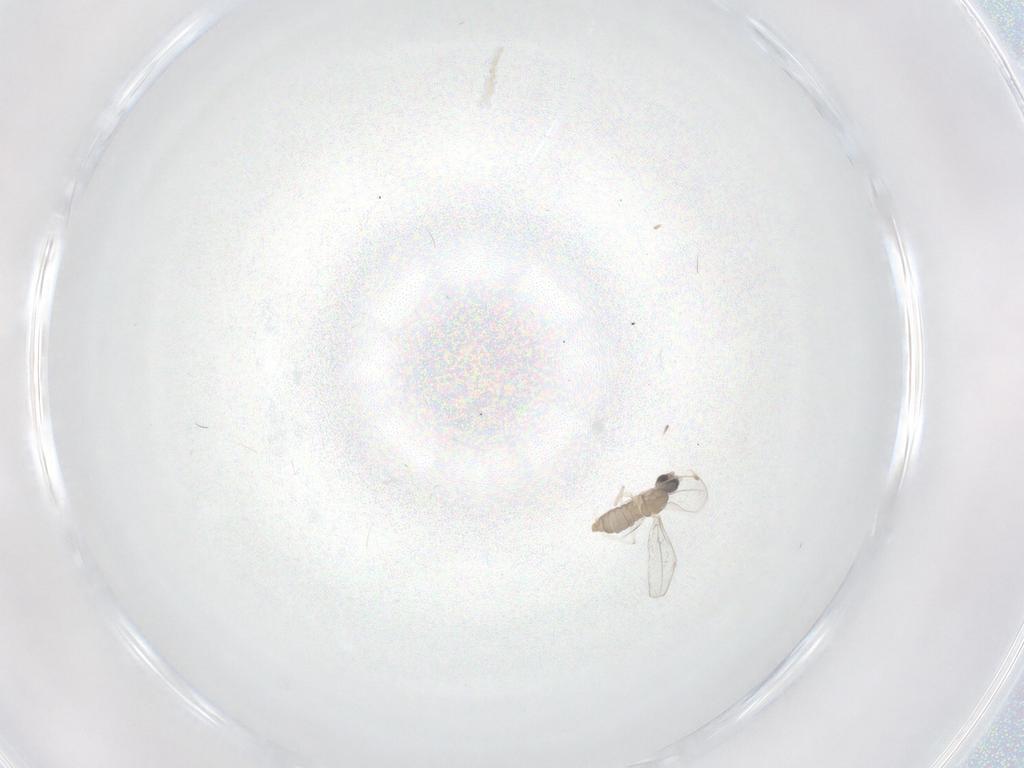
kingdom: Animalia
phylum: Arthropoda
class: Insecta
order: Diptera
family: Cecidomyiidae
